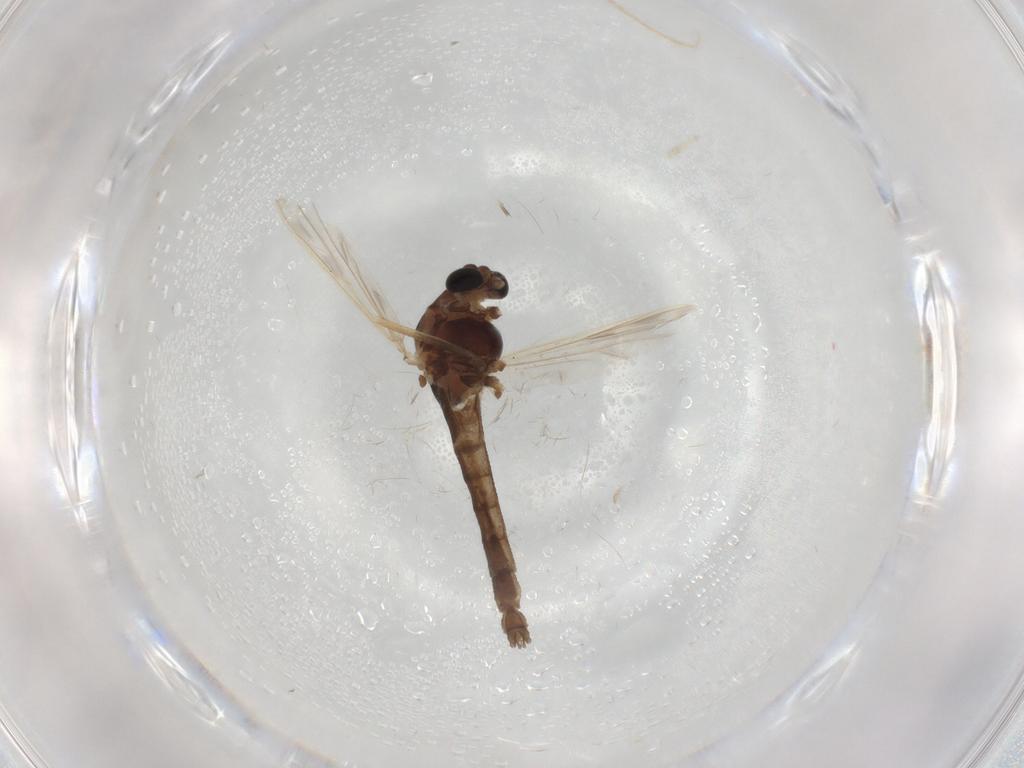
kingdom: Animalia
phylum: Arthropoda
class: Insecta
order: Diptera
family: Chironomidae
